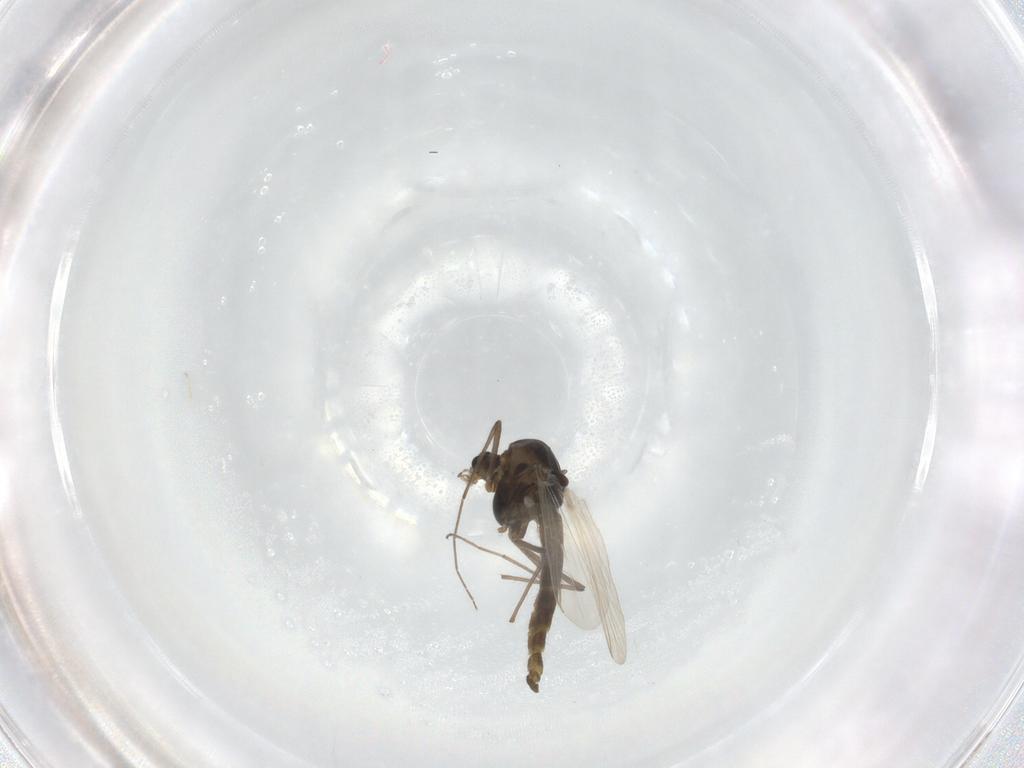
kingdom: Animalia
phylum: Arthropoda
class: Insecta
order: Diptera
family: Chironomidae
